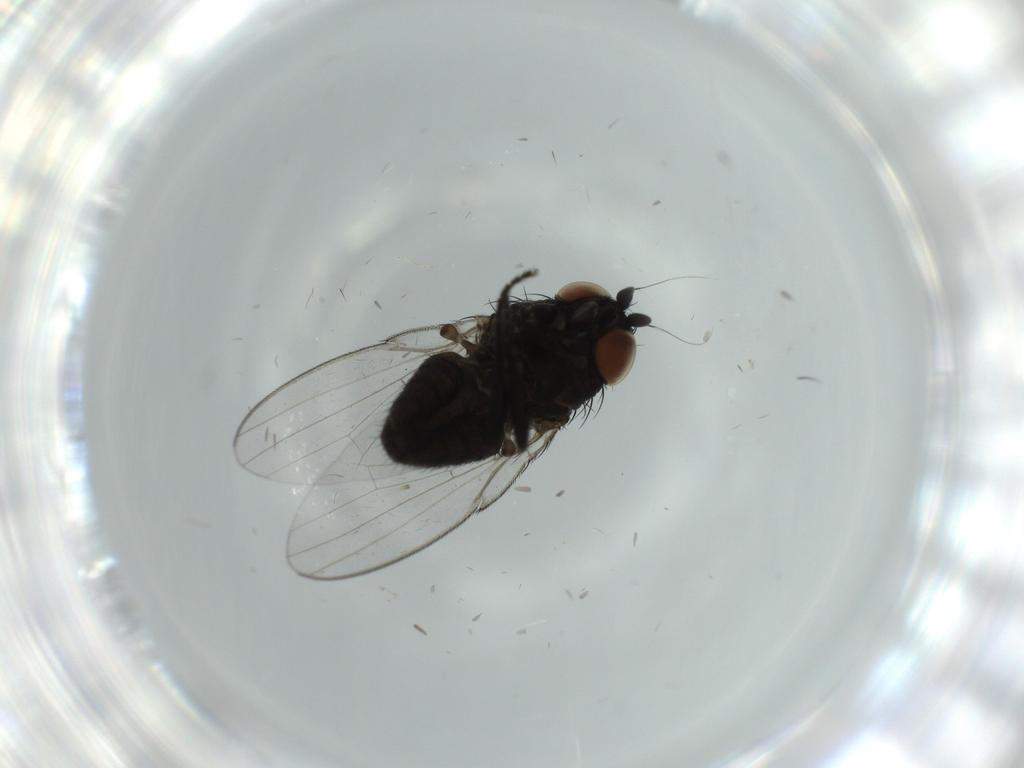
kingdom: Animalia
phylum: Arthropoda
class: Insecta
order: Diptera
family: Milichiidae
